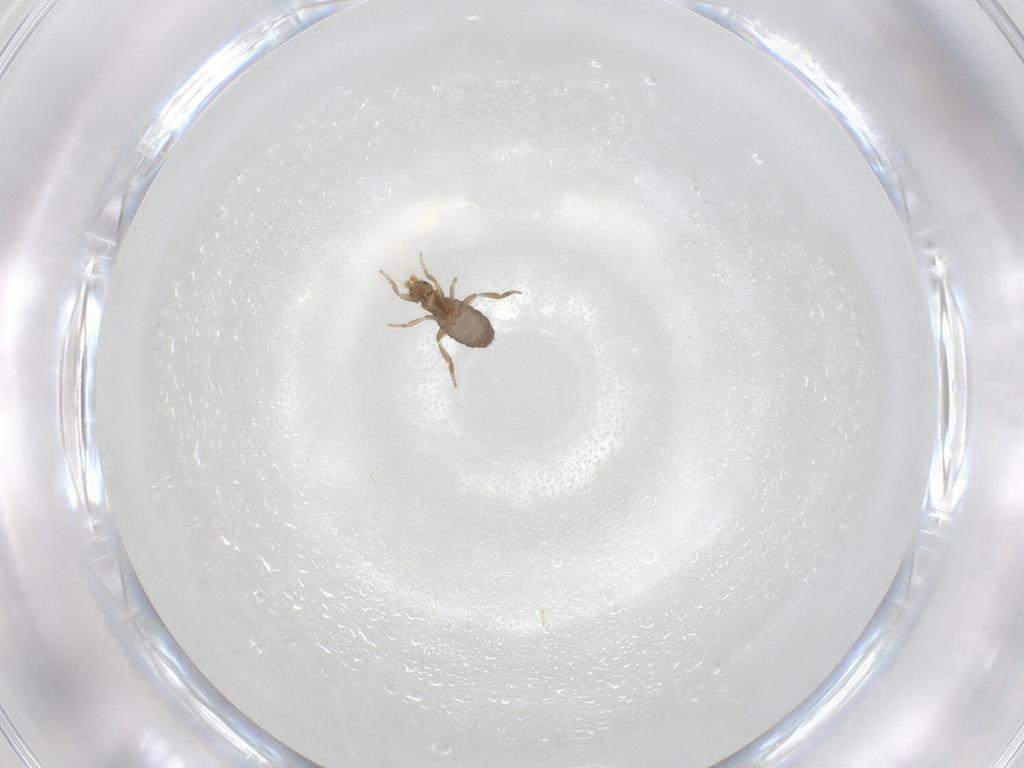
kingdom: Animalia
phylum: Arthropoda
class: Insecta
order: Diptera
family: Phoridae
